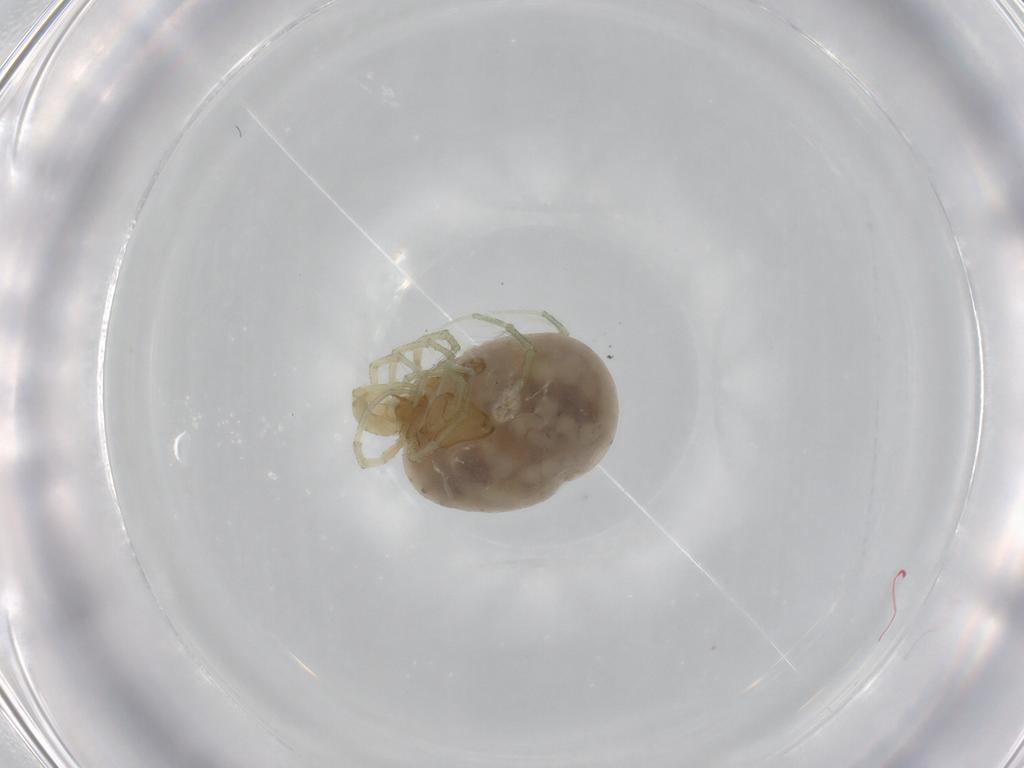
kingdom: Animalia
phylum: Arthropoda
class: Arachnida
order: Trombidiformes
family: Limnesiidae
